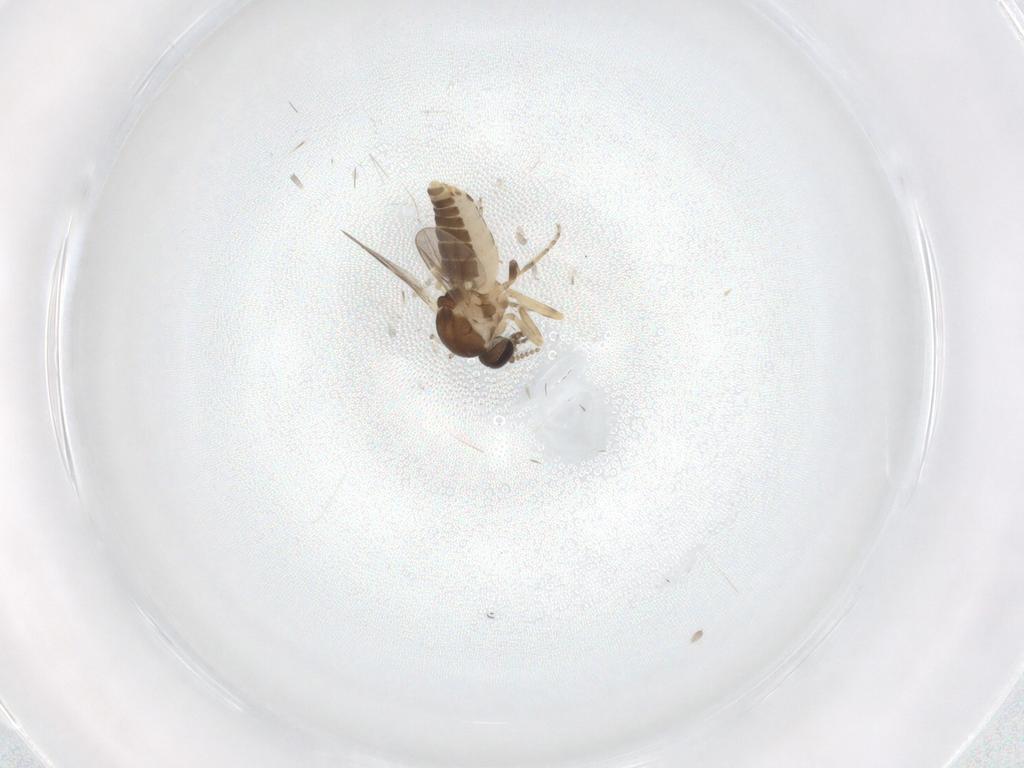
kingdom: Animalia
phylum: Arthropoda
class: Insecta
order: Diptera
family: Ceratopogonidae
